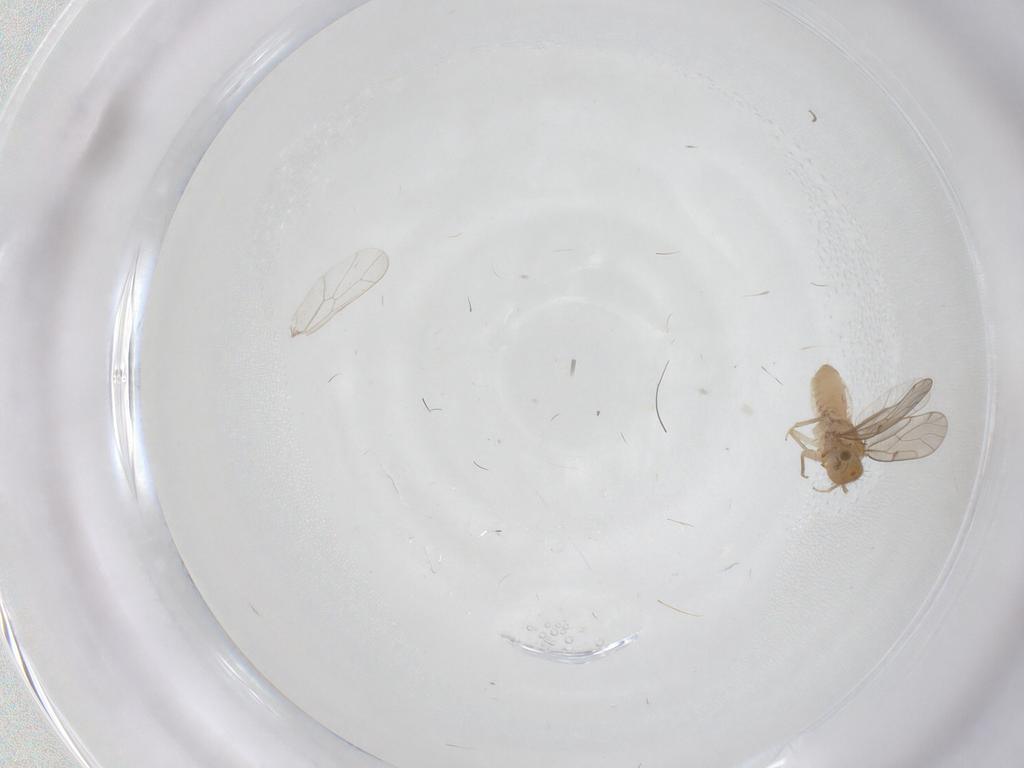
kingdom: Animalia
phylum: Arthropoda
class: Insecta
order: Psocodea
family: Ectopsocidae
